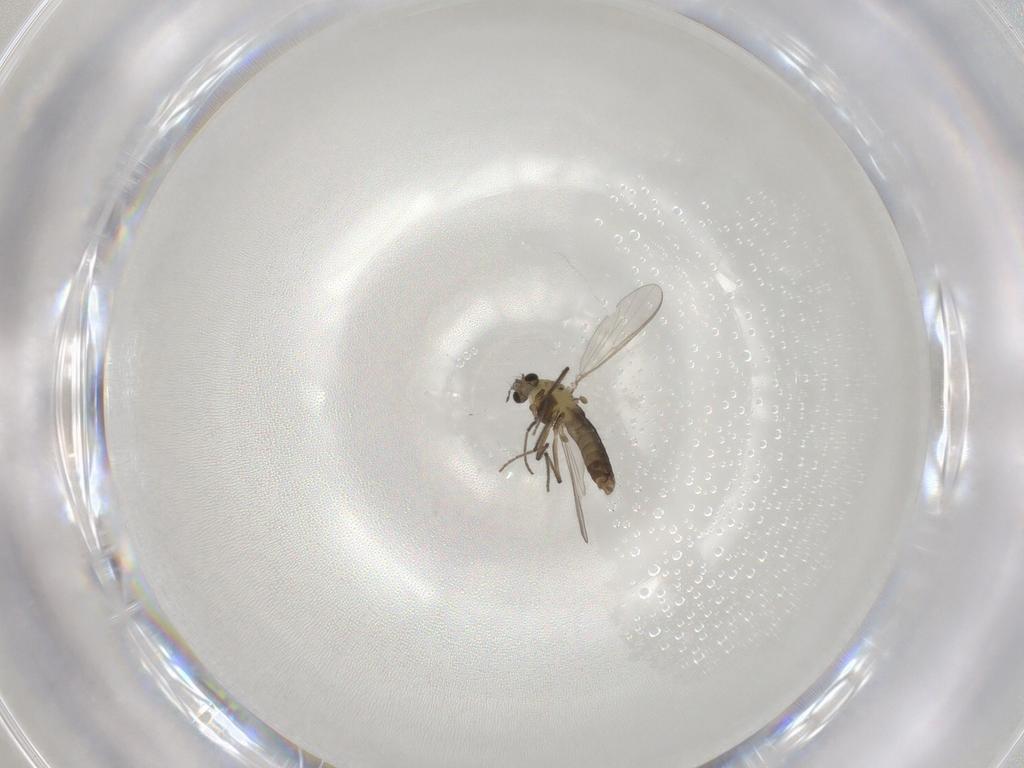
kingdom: Animalia
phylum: Arthropoda
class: Insecta
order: Diptera
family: Chironomidae
